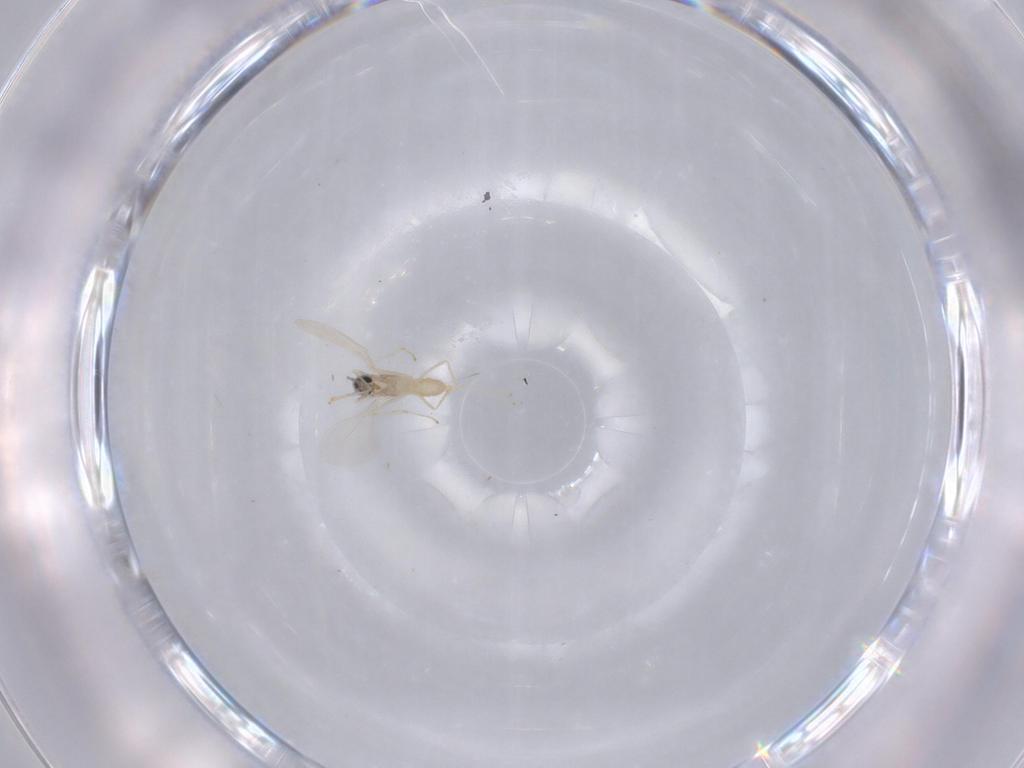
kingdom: Animalia
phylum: Arthropoda
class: Insecta
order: Diptera
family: Cecidomyiidae
